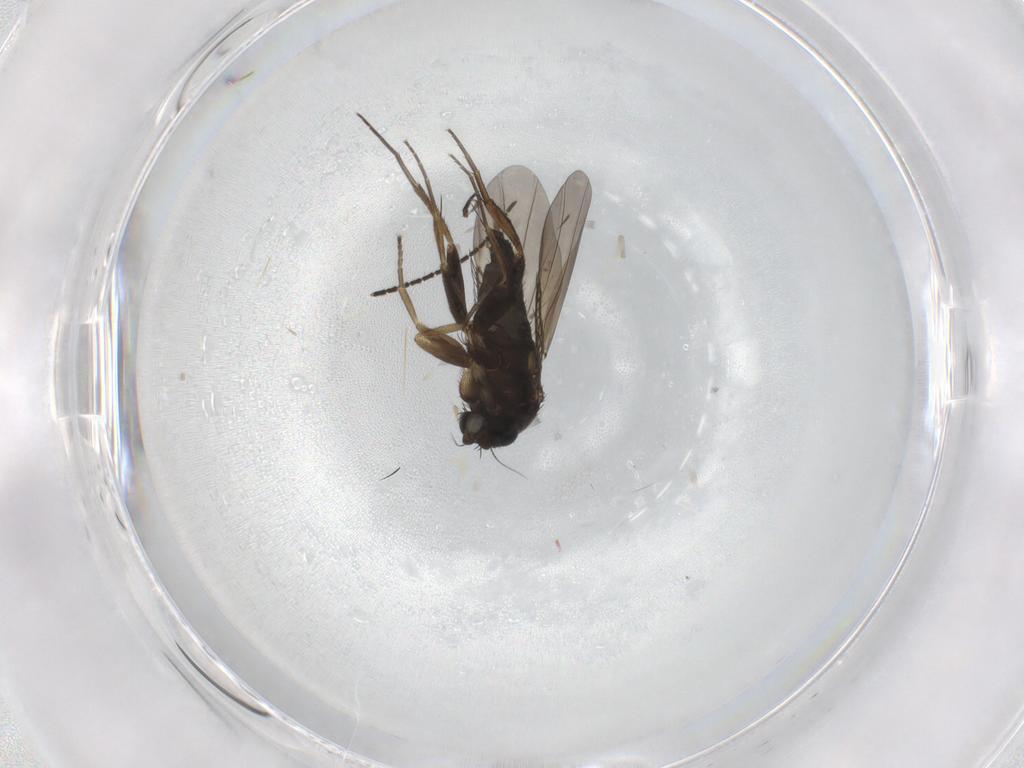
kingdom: Animalia
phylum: Arthropoda
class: Insecta
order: Diptera
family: Phoridae
